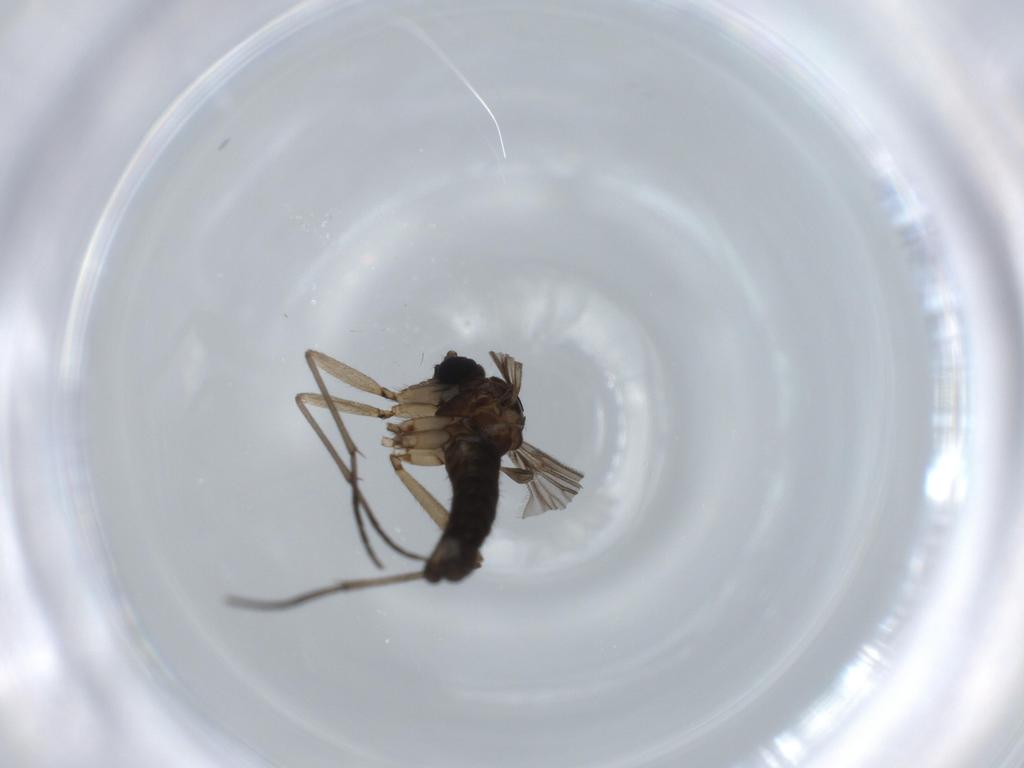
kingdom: Animalia
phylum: Arthropoda
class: Insecta
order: Diptera
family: Sciaridae
